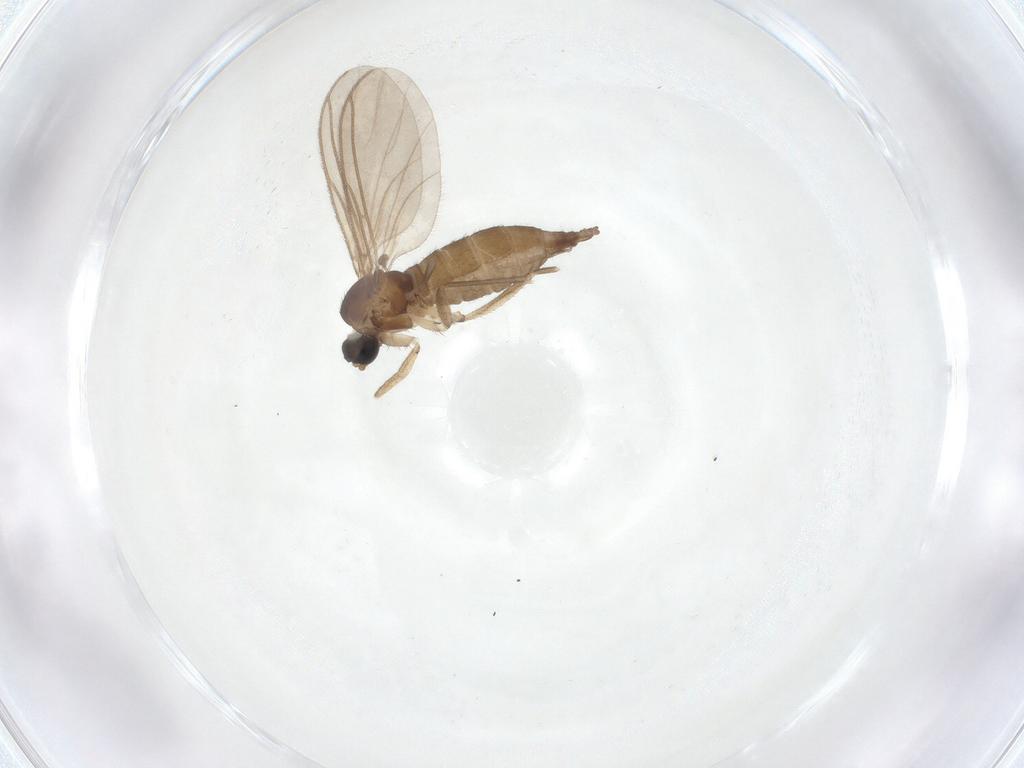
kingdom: Animalia
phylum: Arthropoda
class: Insecta
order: Diptera
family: Sciaridae
